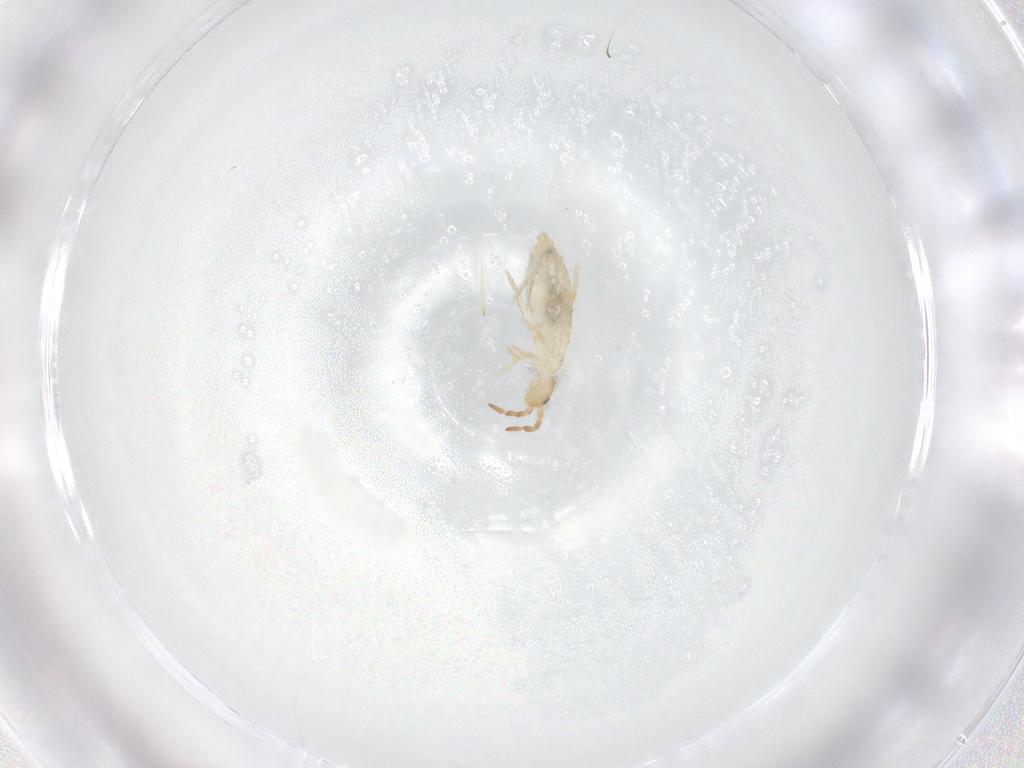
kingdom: Animalia
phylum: Arthropoda
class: Collembola
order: Entomobryomorpha
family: Entomobryidae
